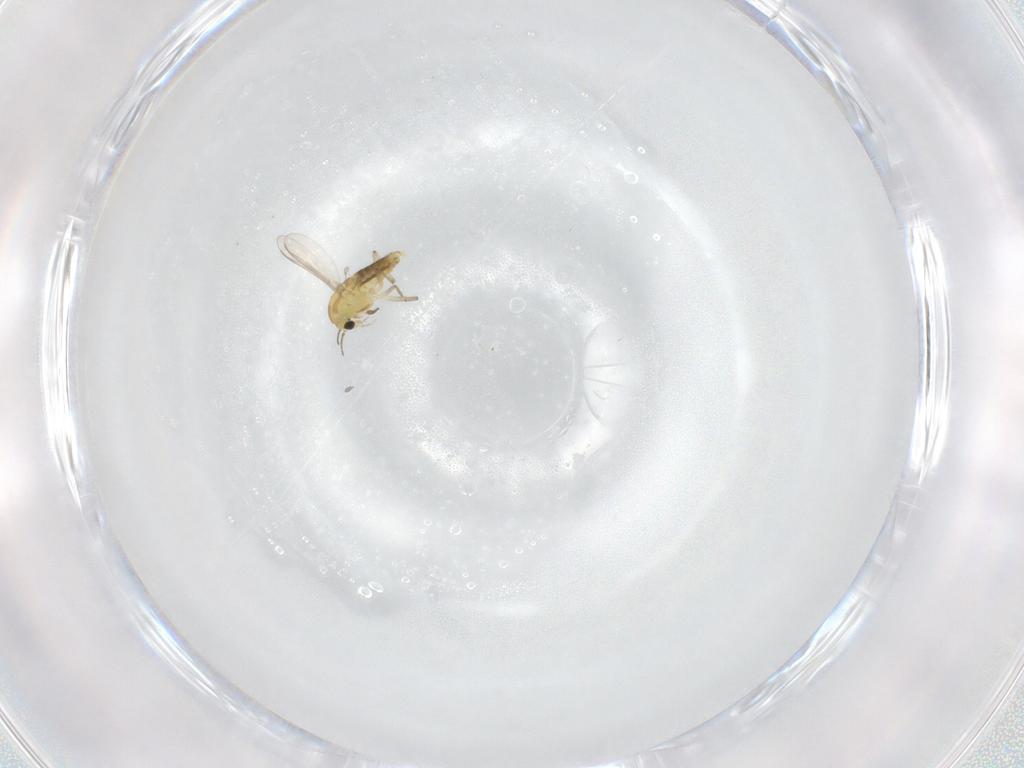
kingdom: Animalia
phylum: Arthropoda
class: Insecta
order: Diptera
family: Chironomidae
